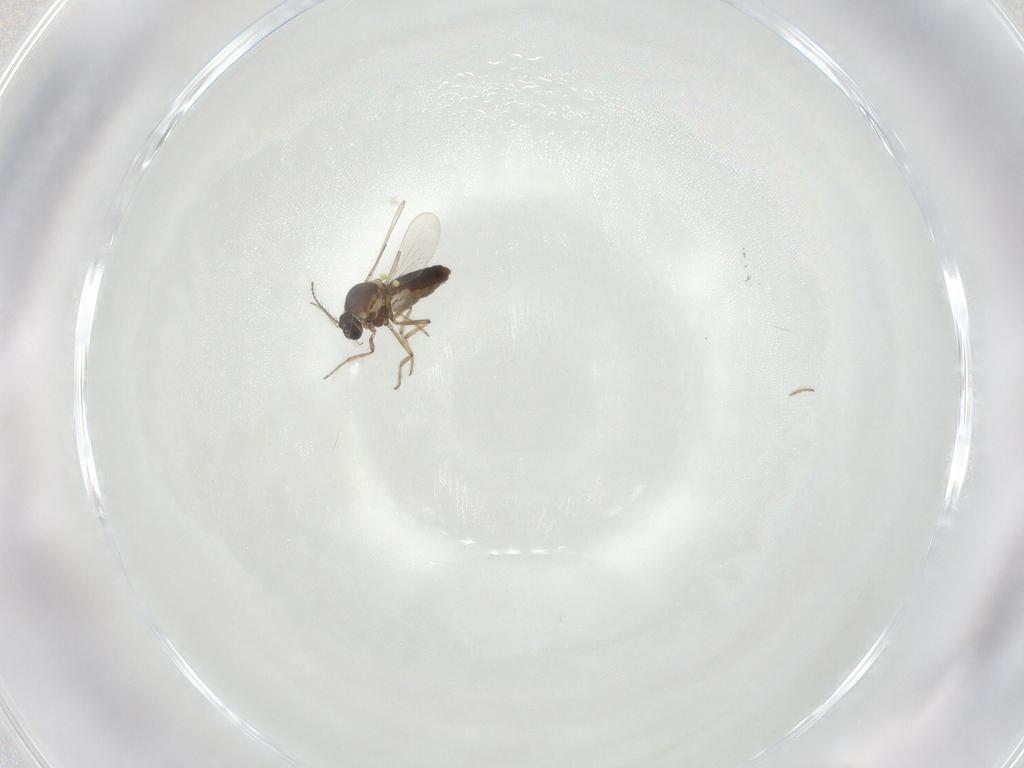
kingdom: Animalia
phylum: Arthropoda
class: Insecta
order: Diptera
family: Ceratopogonidae
